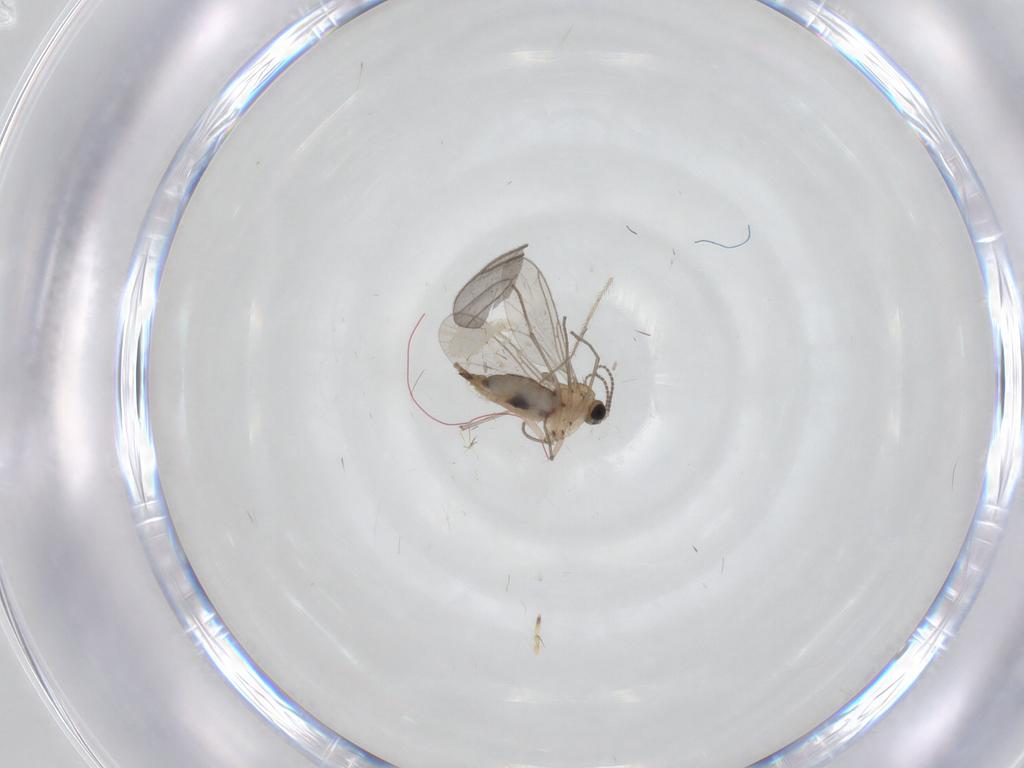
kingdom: Animalia
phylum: Arthropoda
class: Insecta
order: Diptera
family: Sciaridae
